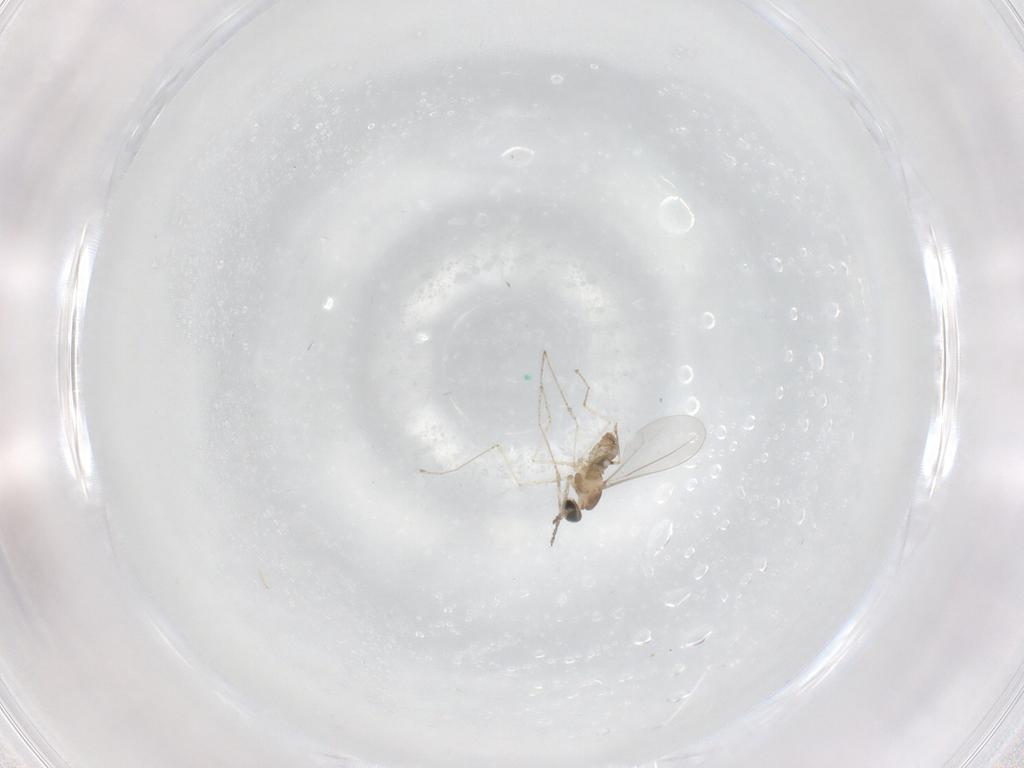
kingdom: Animalia
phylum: Arthropoda
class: Insecta
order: Diptera
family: Cecidomyiidae
